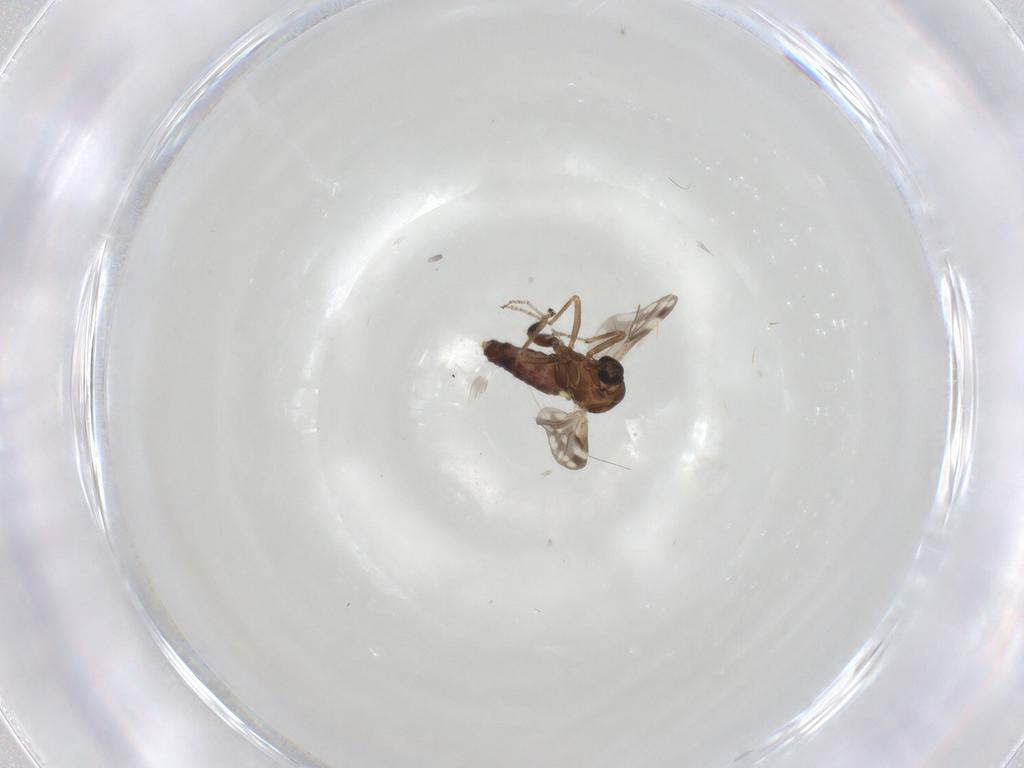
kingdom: Animalia
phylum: Arthropoda
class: Insecta
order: Diptera
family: Ceratopogonidae
